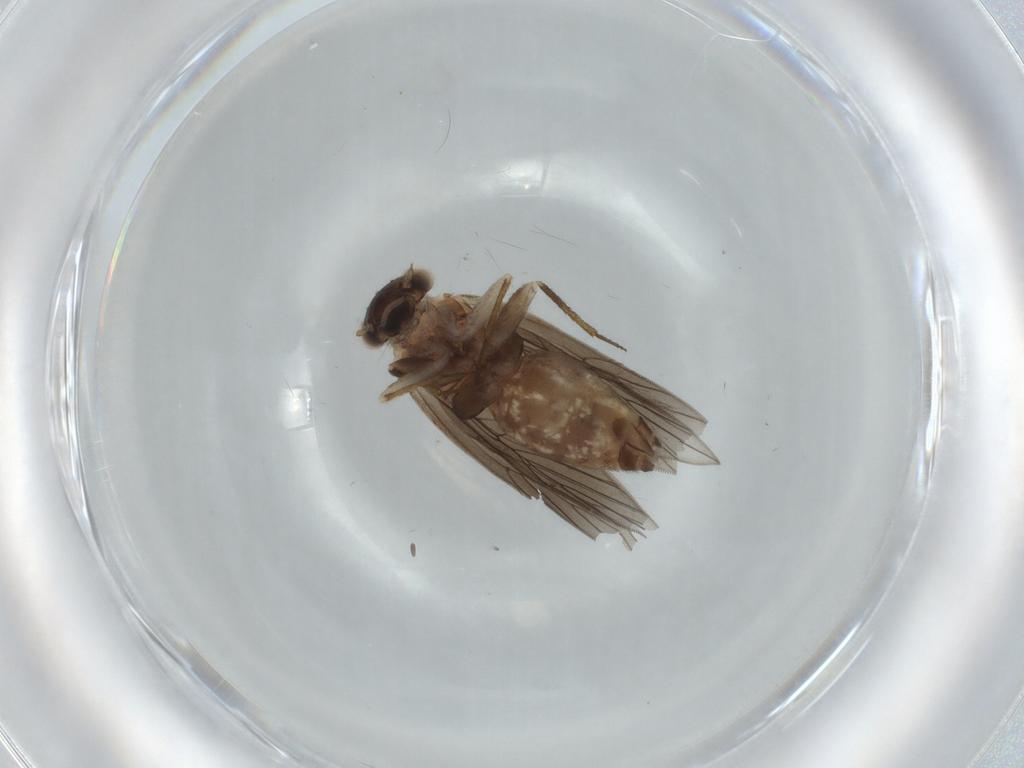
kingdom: Animalia
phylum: Arthropoda
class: Insecta
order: Psocodea
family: Lepidopsocidae
